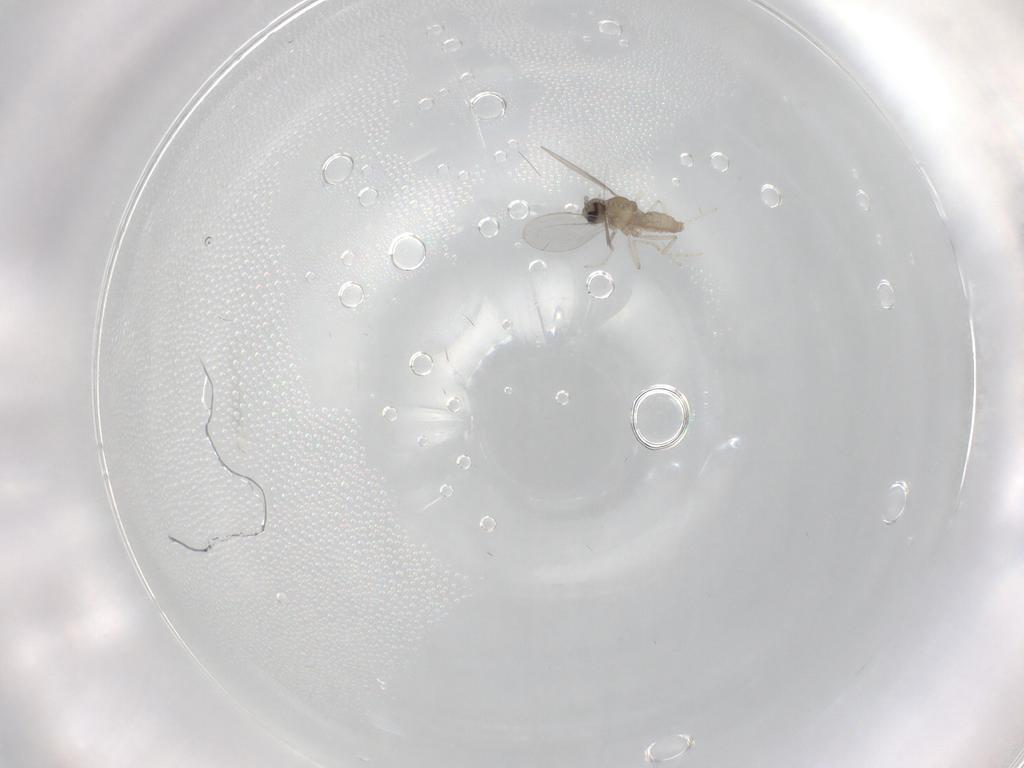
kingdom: Animalia
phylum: Arthropoda
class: Insecta
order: Diptera
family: Cecidomyiidae
